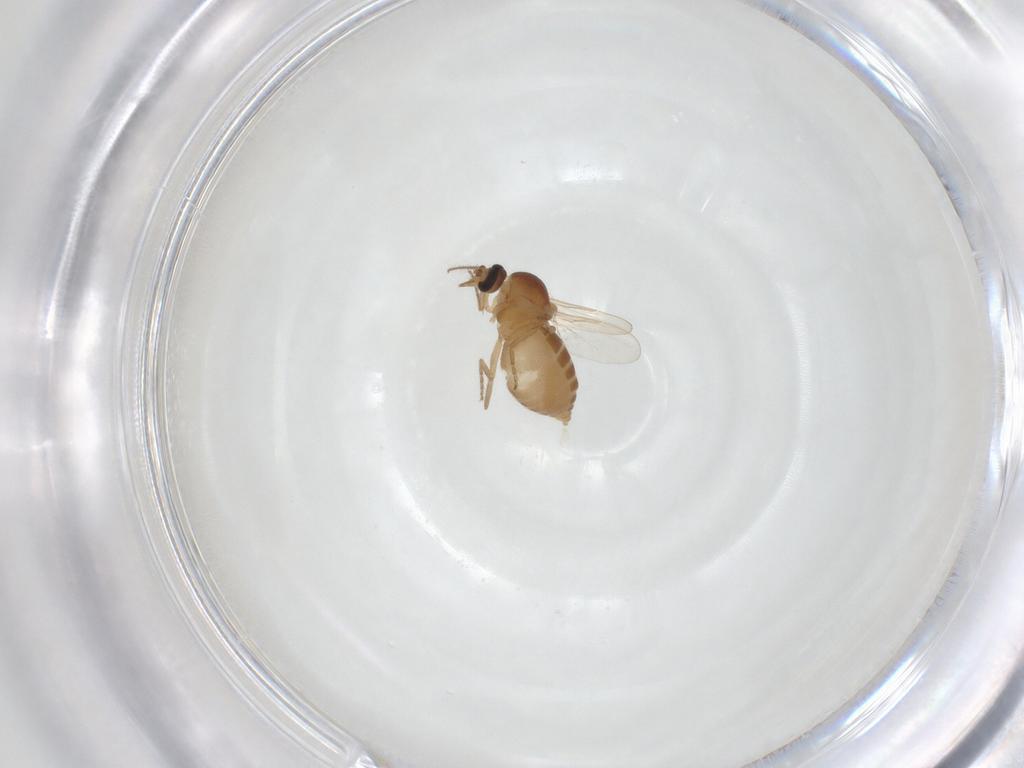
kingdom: Animalia
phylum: Arthropoda
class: Insecta
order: Diptera
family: Ceratopogonidae
